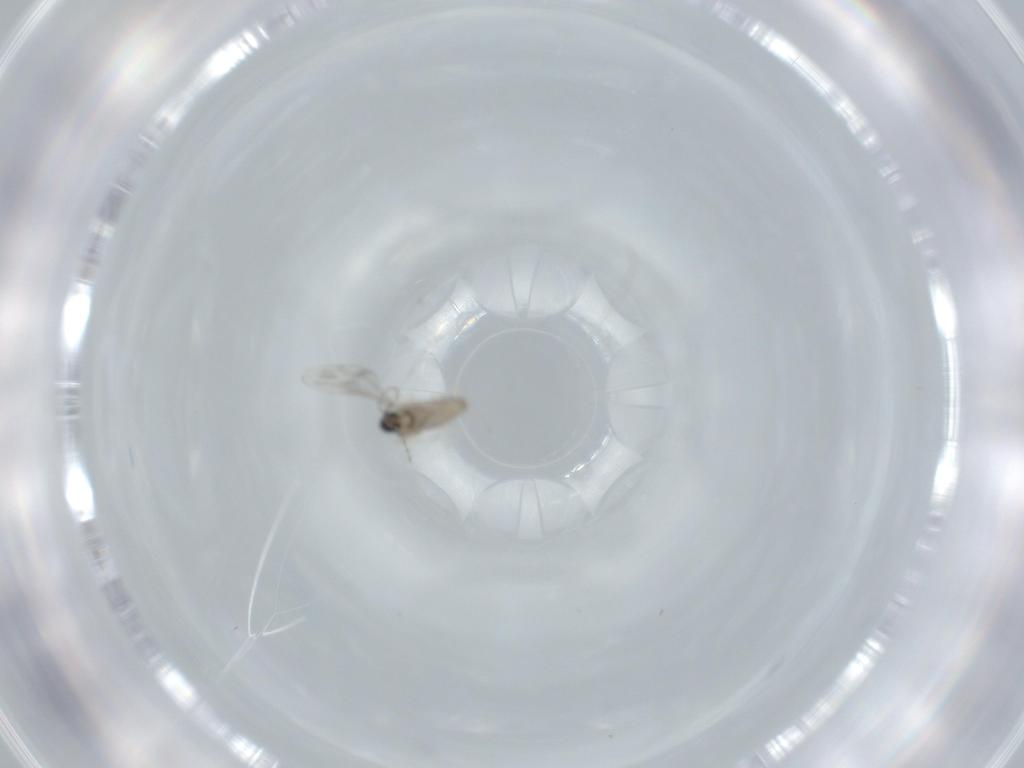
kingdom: Animalia
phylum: Arthropoda
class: Insecta
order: Diptera
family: Cecidomyiidae
